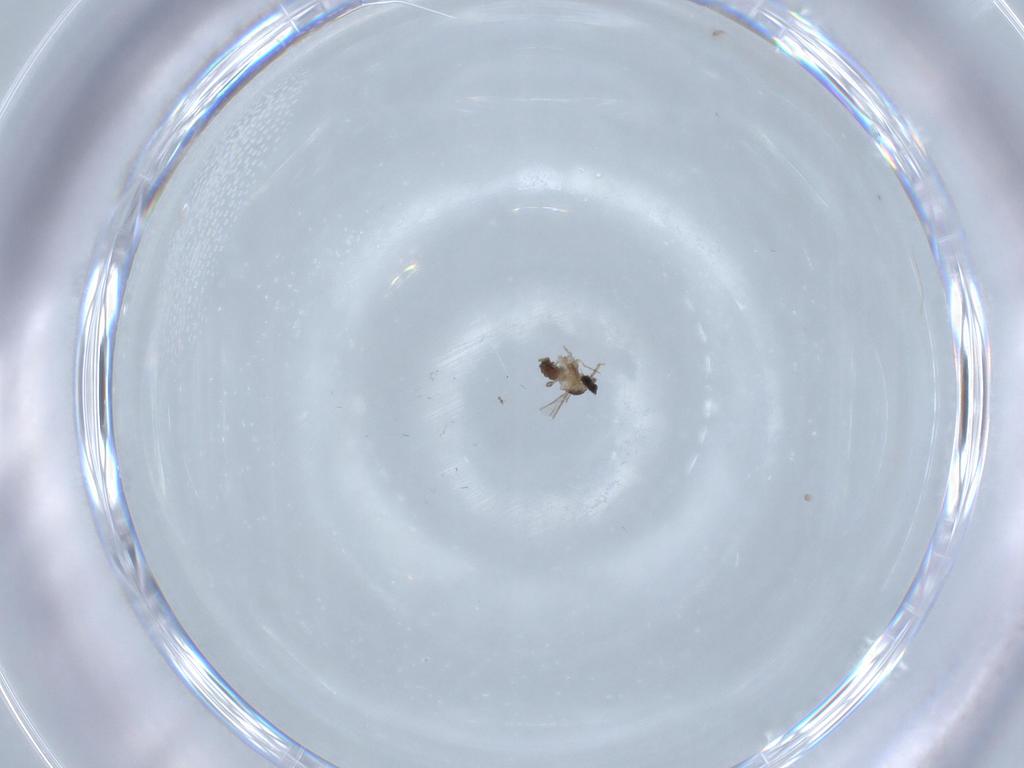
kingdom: Animalia
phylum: Arthropoda
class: Insecta
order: Diptera
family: Cecidomyiidae
